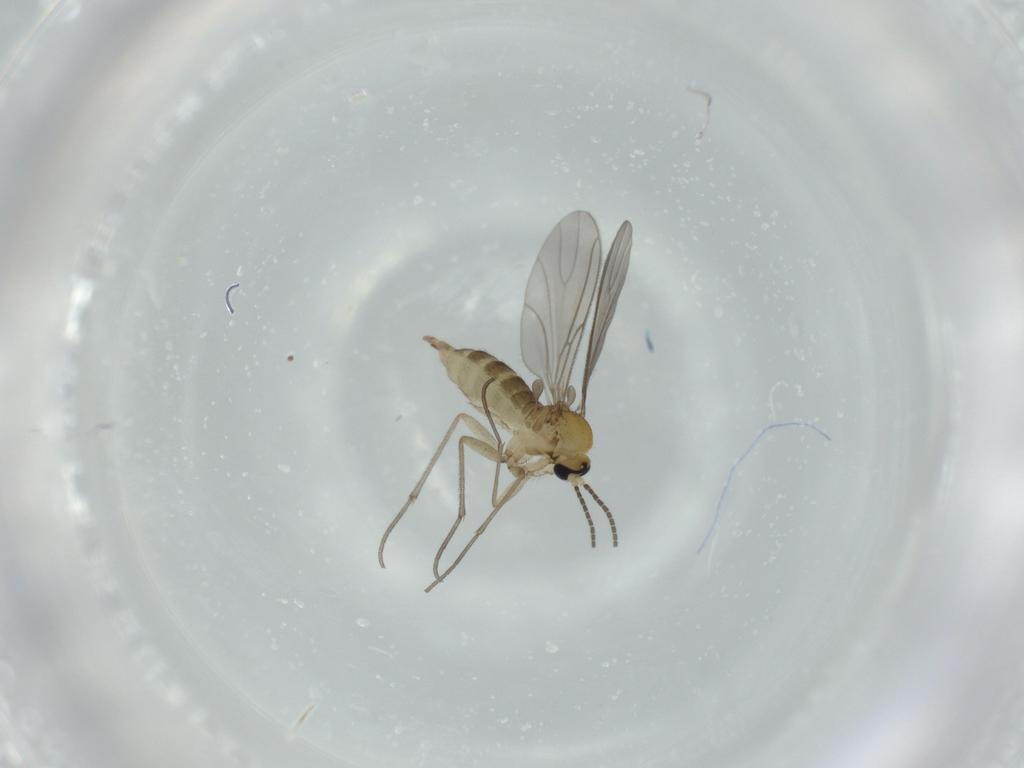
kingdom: Animalia
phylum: Arthropoda
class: Insecta
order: Diptera
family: Sciaridae
